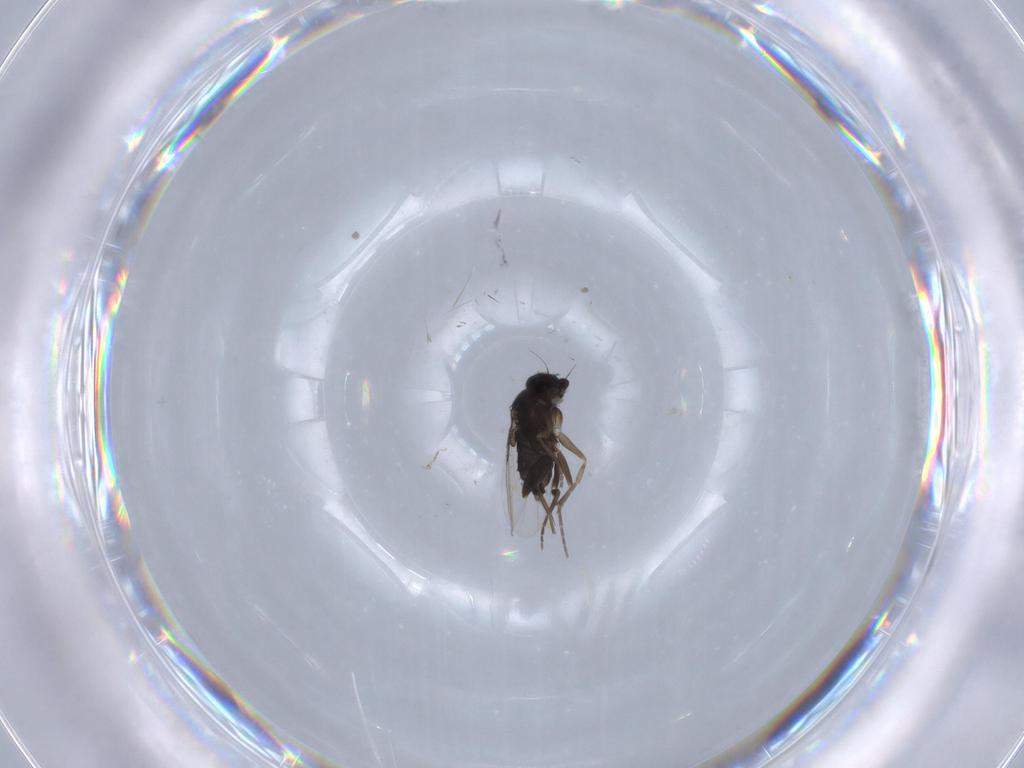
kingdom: Animalia
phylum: Arthropoda
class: Insecta
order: Diptera
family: Phoridae
